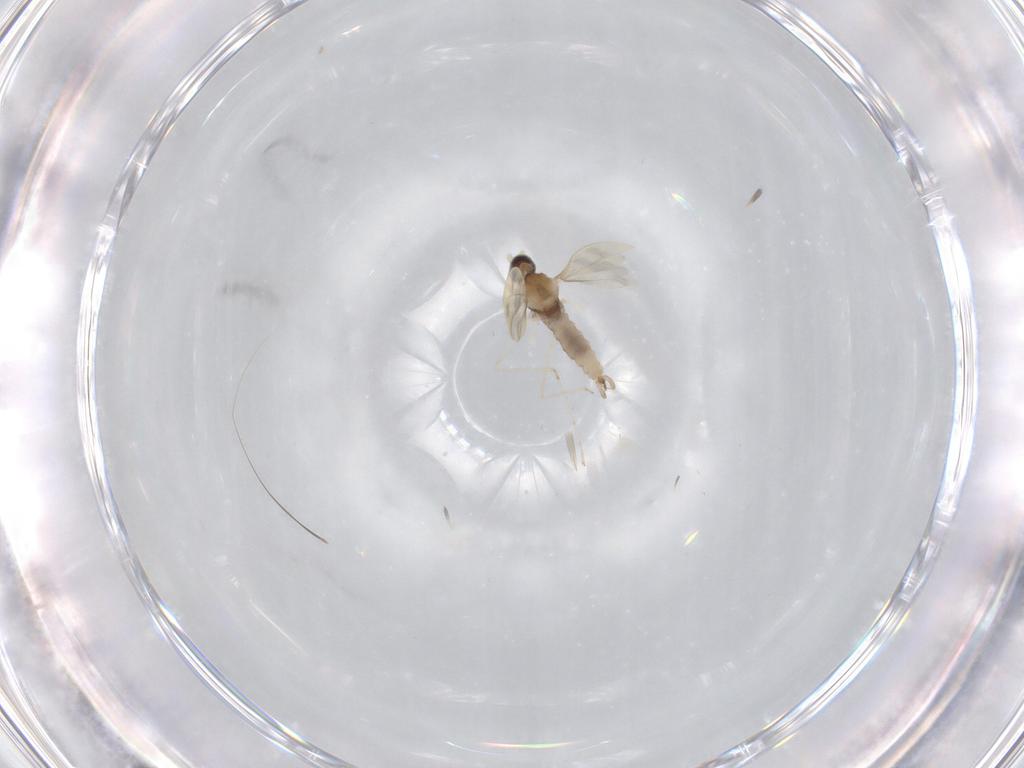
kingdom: Animalia
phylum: Arthropoda
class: Insecta
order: Diptera
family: Cecidomyiidae
